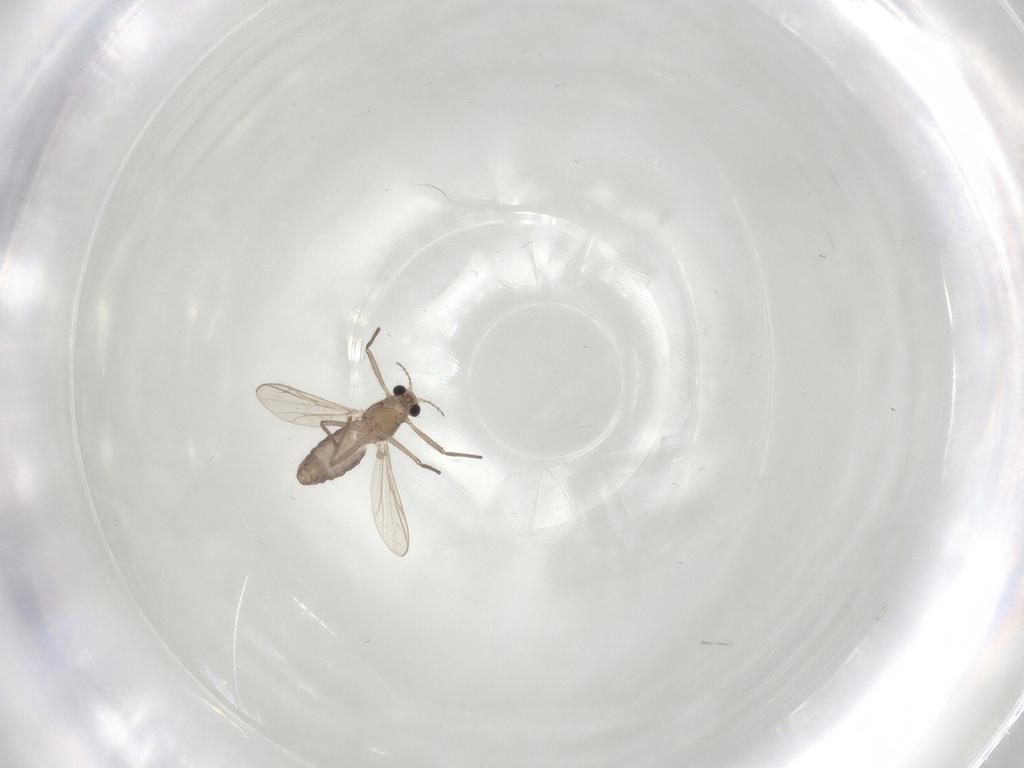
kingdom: Animalia
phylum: Arthropoda
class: Insecta
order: Diptera
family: Chironomidae
